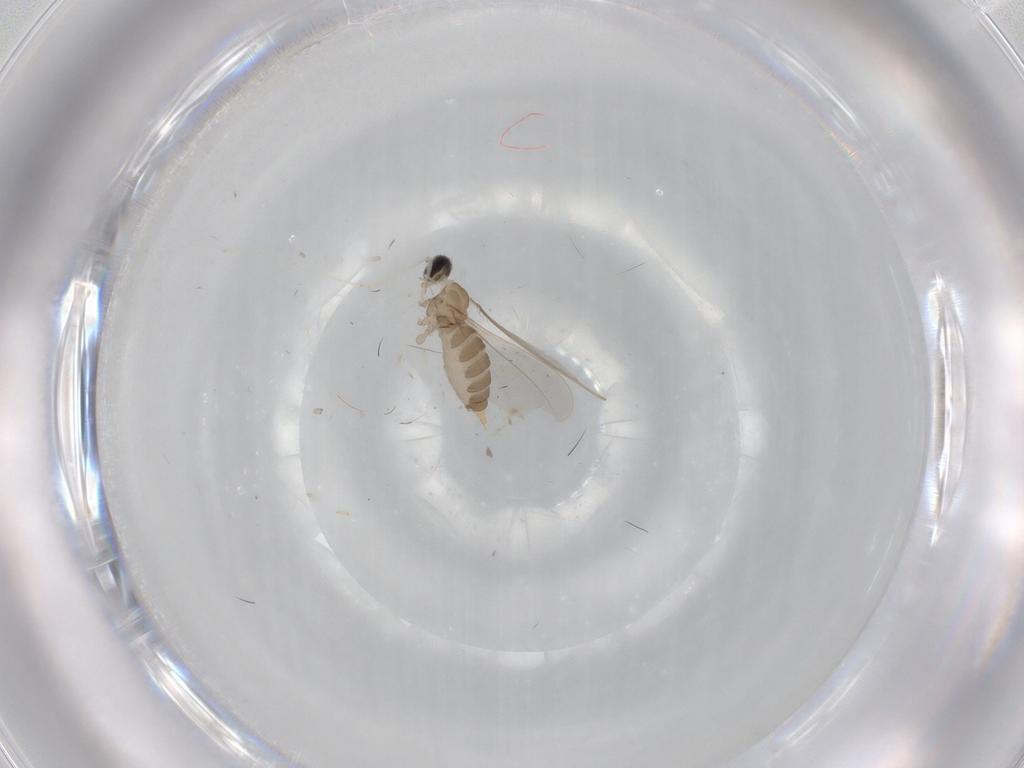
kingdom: Animalia
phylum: Arthropoda
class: Insecta
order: Diptera
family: Cecidomyiidae
